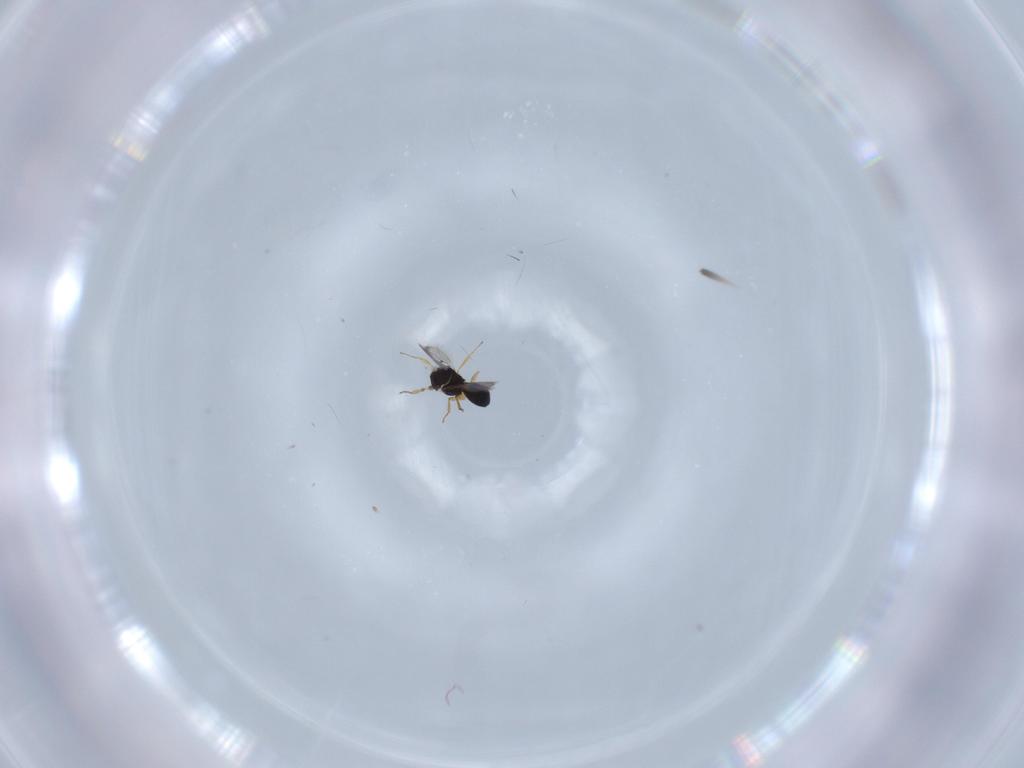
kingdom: Animalia
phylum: Arthropoda
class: Insecta
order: Hymenoptera
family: Scelionidae
